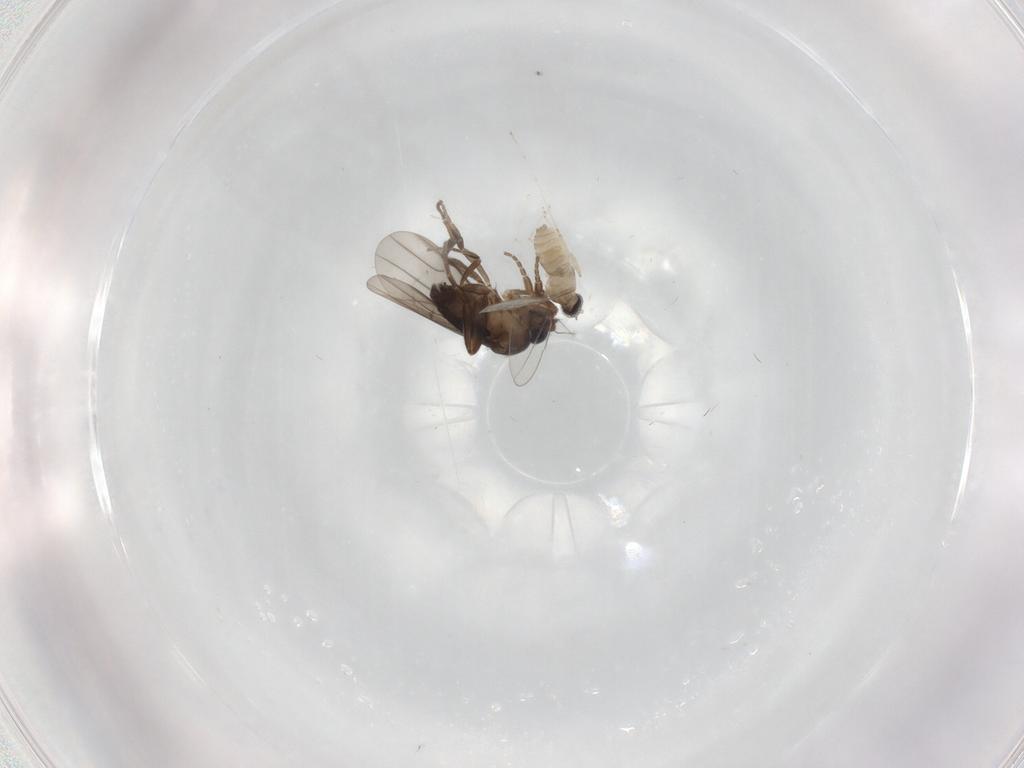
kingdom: Animalia
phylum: Arthropoda
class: Insecta
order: Diptera
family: Cecidomyiidae
